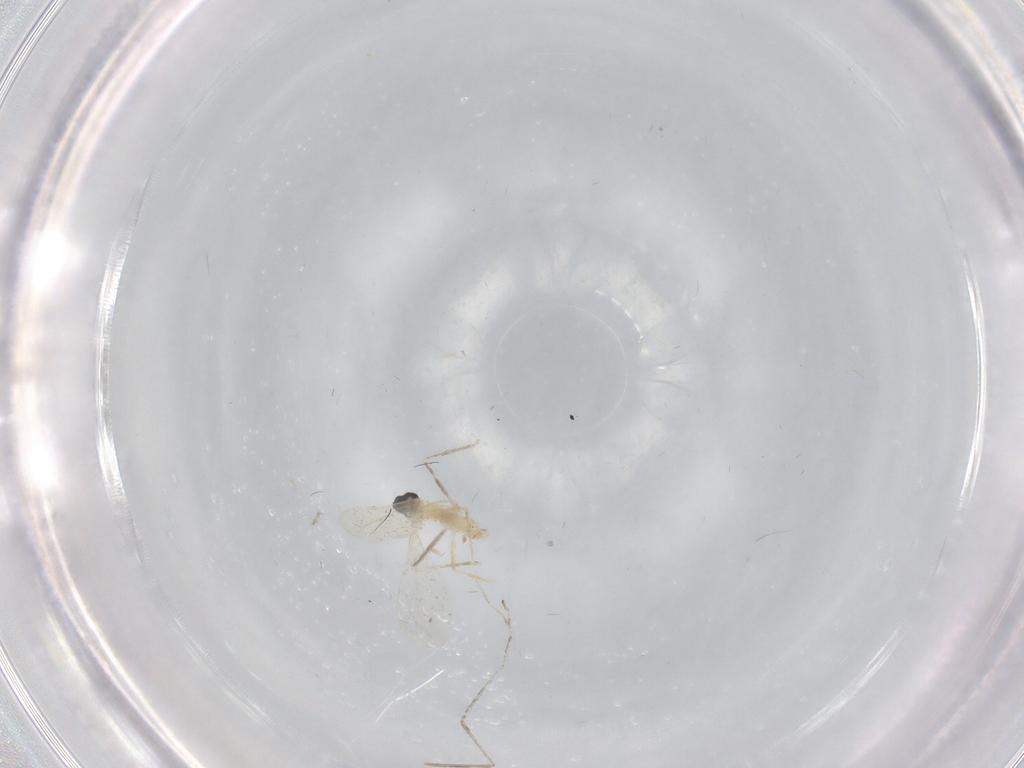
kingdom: Animalia
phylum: Arthropoda
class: Insecta
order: Diptera
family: Cecidomyiidae
